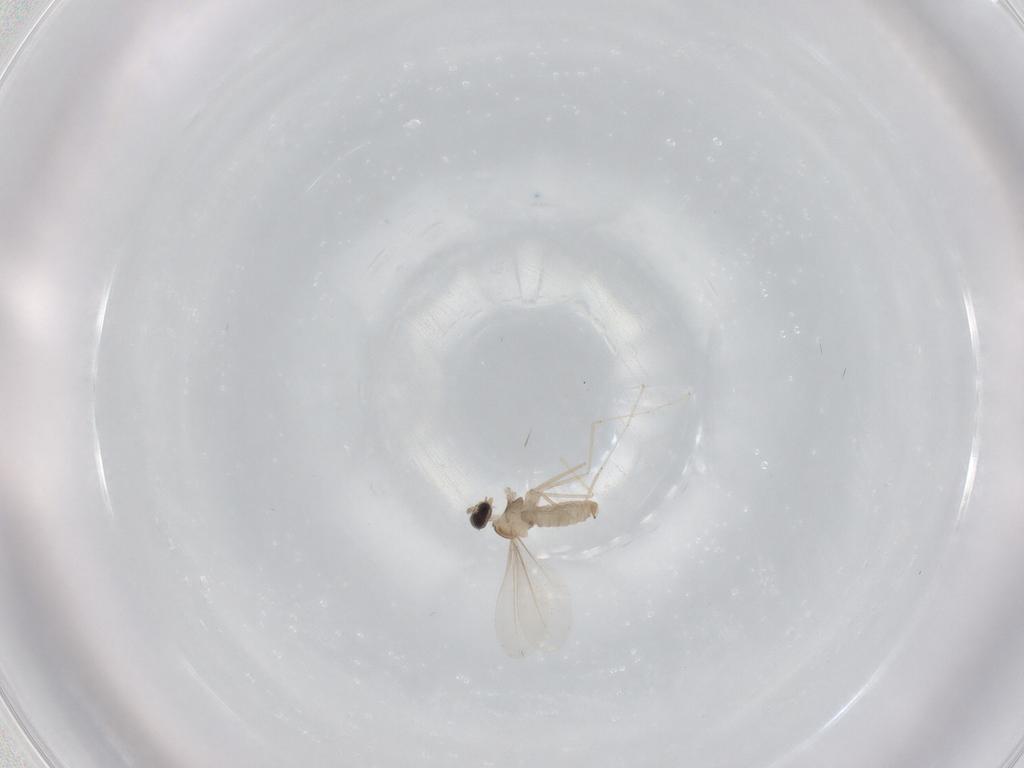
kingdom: Animalia
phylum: Arthropoda
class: Insecta
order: Diptera
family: Cecidomyiidae
